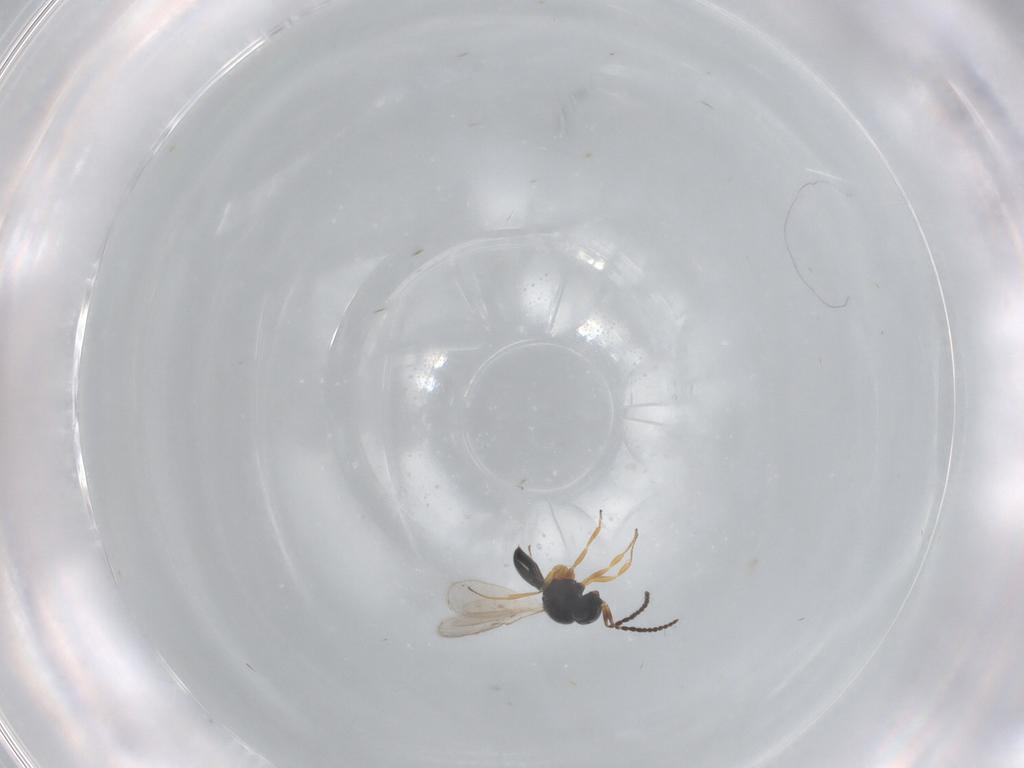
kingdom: Animalia
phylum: Arthropoda
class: Insecta
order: Hymenoptera
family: Scelionidae
